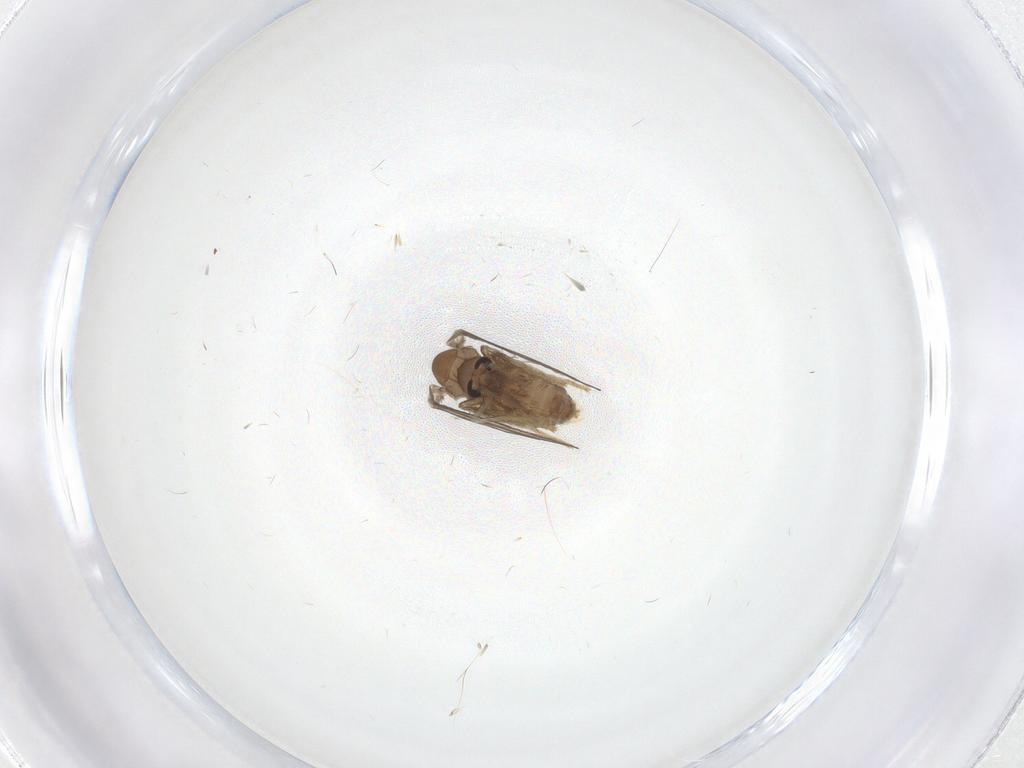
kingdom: Animalia
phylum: Arthropoda
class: Insecta
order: Diptera
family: Psychodidae
